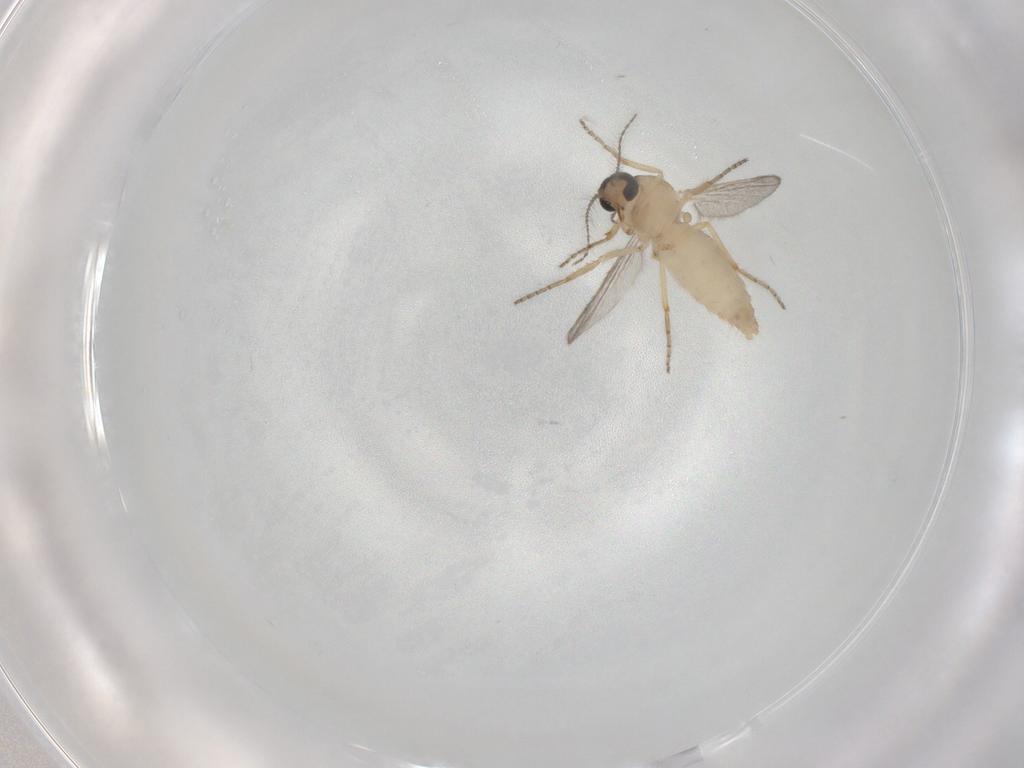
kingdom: Animalia
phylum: Arthropoda
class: Insecta
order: Diptera
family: Ceratopogonidae
